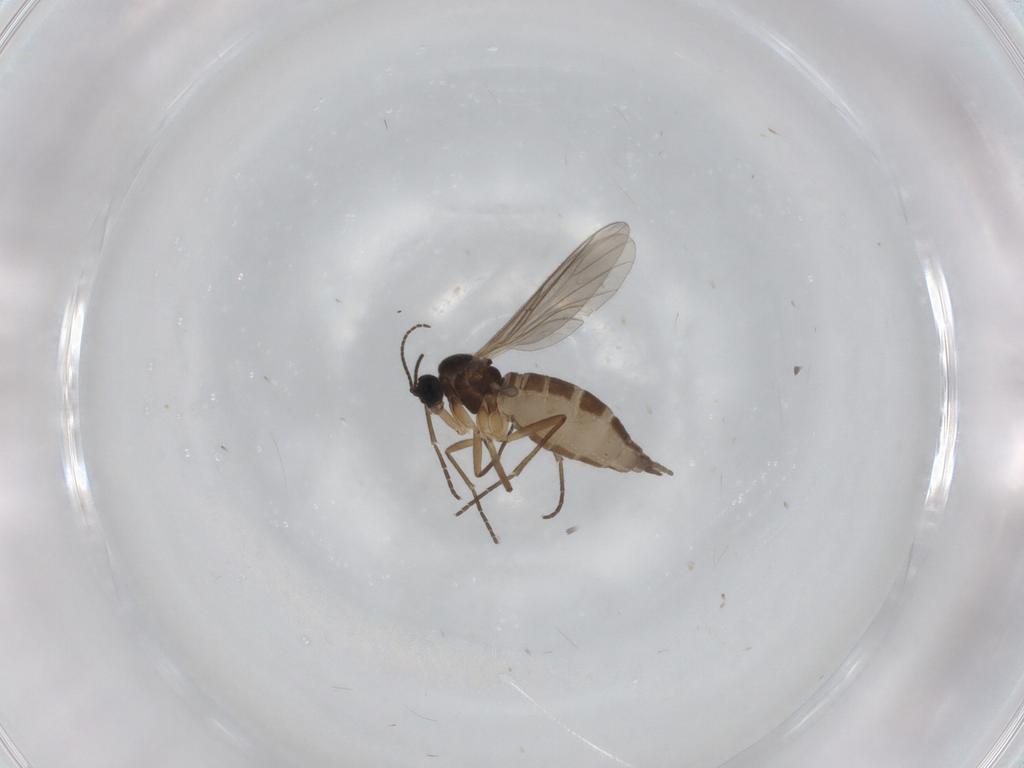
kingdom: Animalia
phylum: Arthropoda
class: Insecta
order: Diptera
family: Sciaridae
